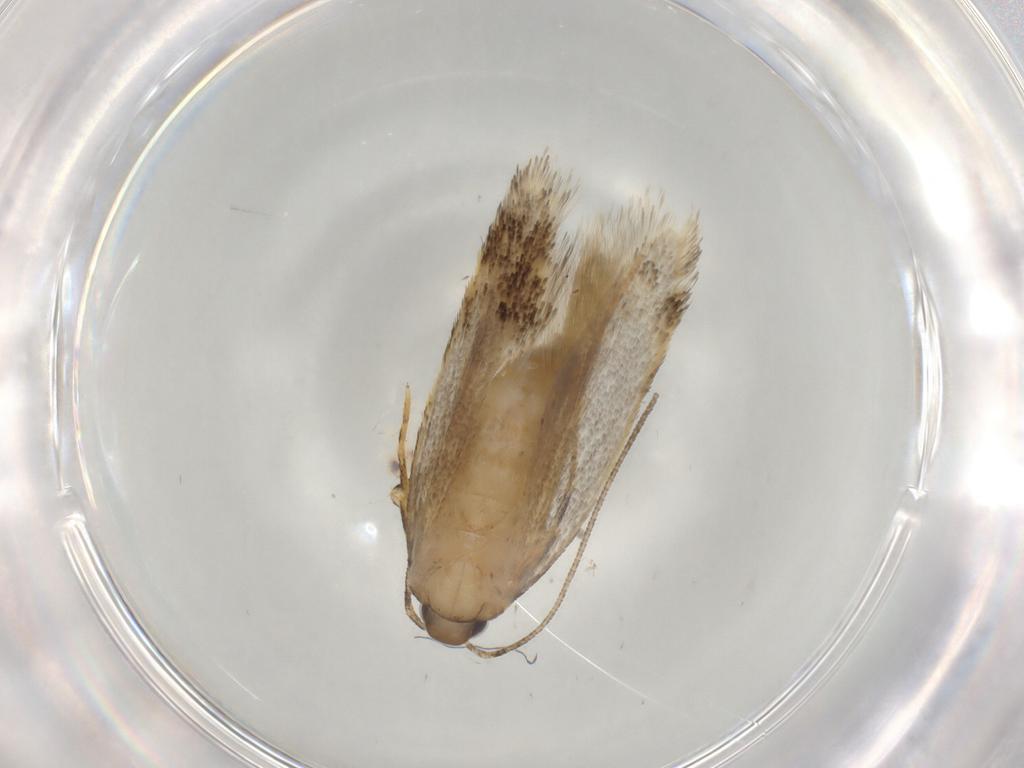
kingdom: Animalia
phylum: Arthropoda
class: Insecta
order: Lepidoptera
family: Autostichidae
